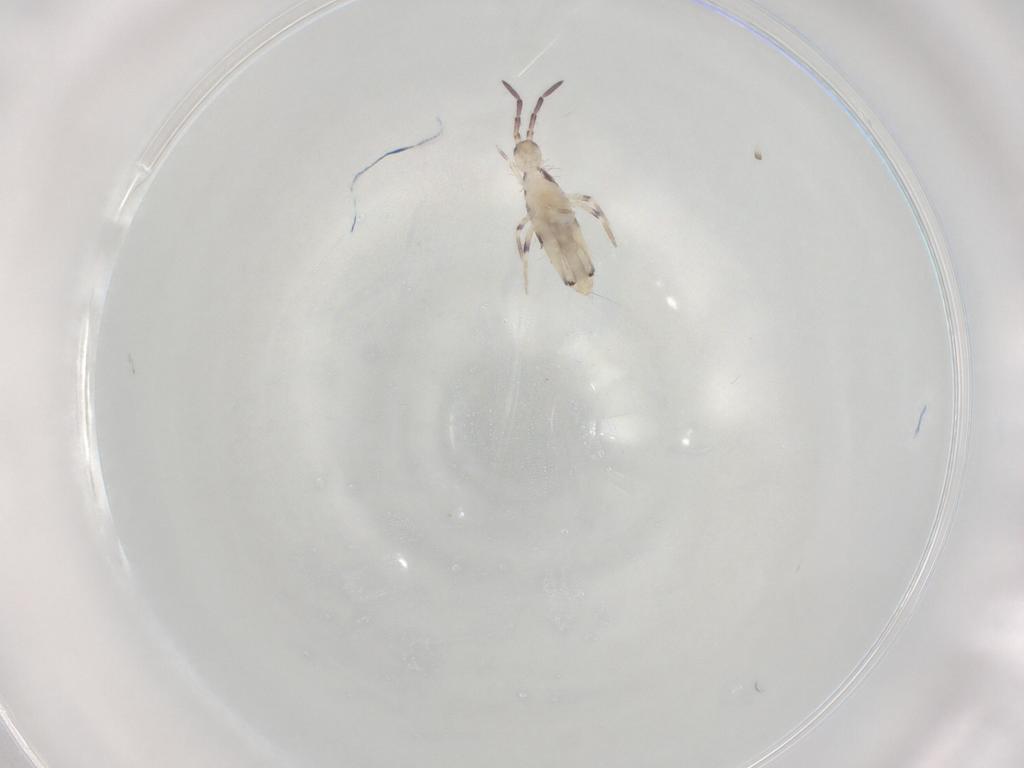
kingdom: Animalia
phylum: Arthropoda
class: Collembola
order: Entomobryomorpha
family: Entomobryidae
